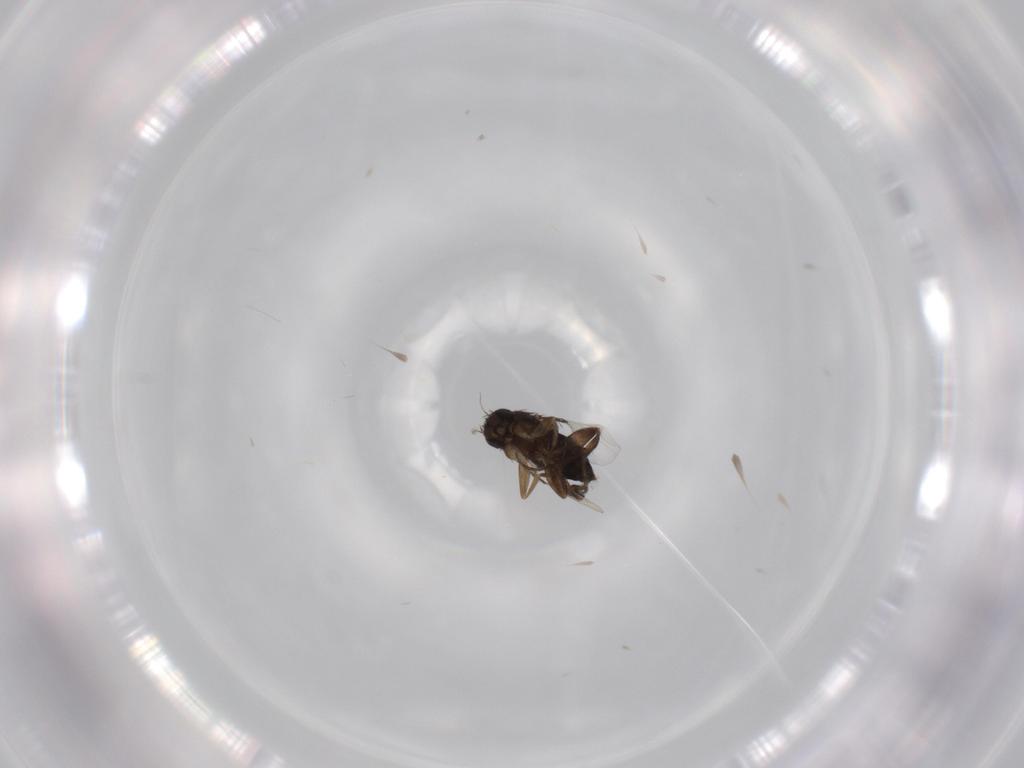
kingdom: Animalia
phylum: Arthropoda
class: Insecta
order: Diptera
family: Phoridae
